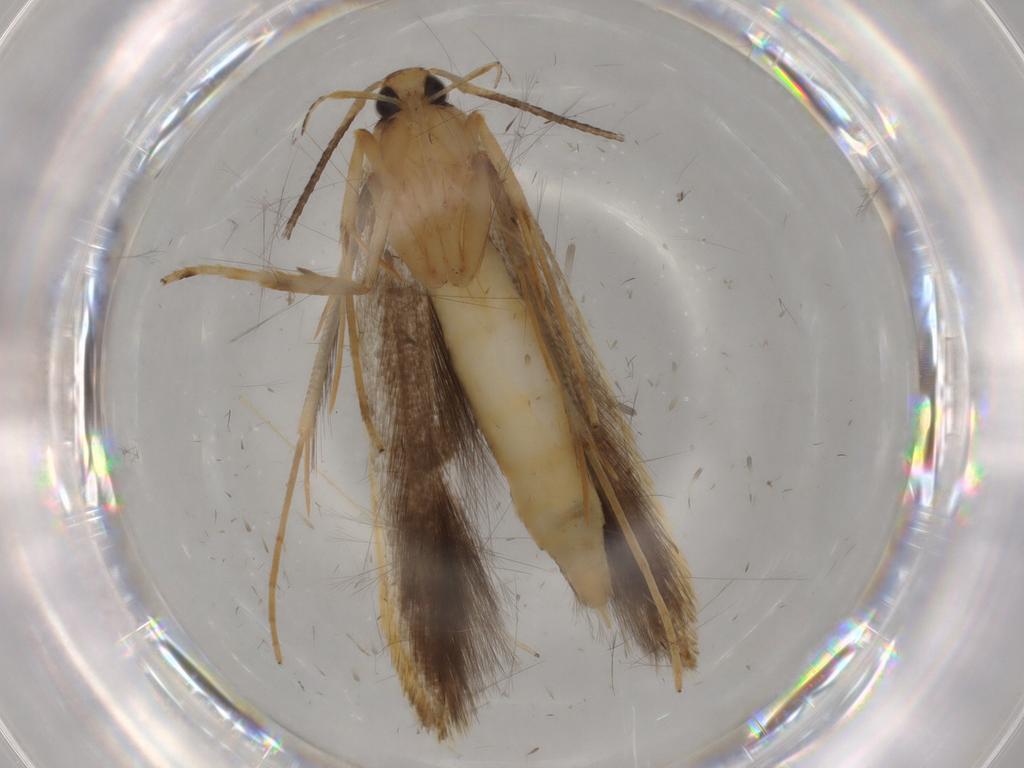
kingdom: Animalia
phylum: Arthropoda
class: Insecta
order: Lepidoptera
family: Pterolonchidae
